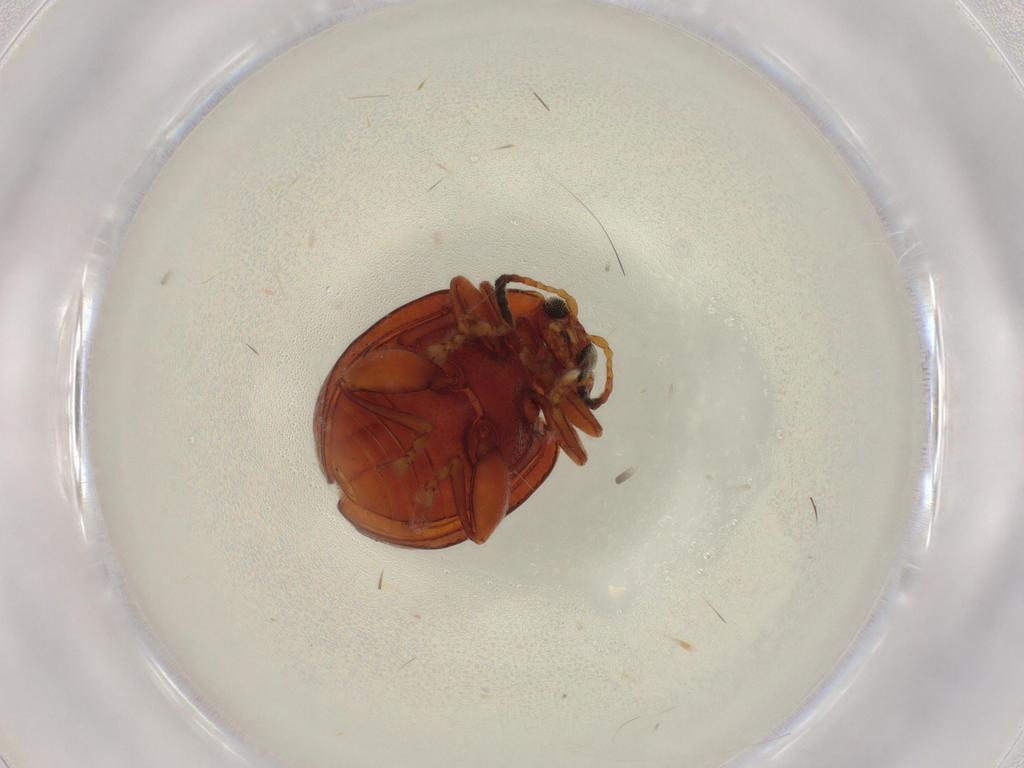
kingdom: Animalia
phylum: Arthropoda
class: Insecta
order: Coleoptera
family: Chrysomelidae
